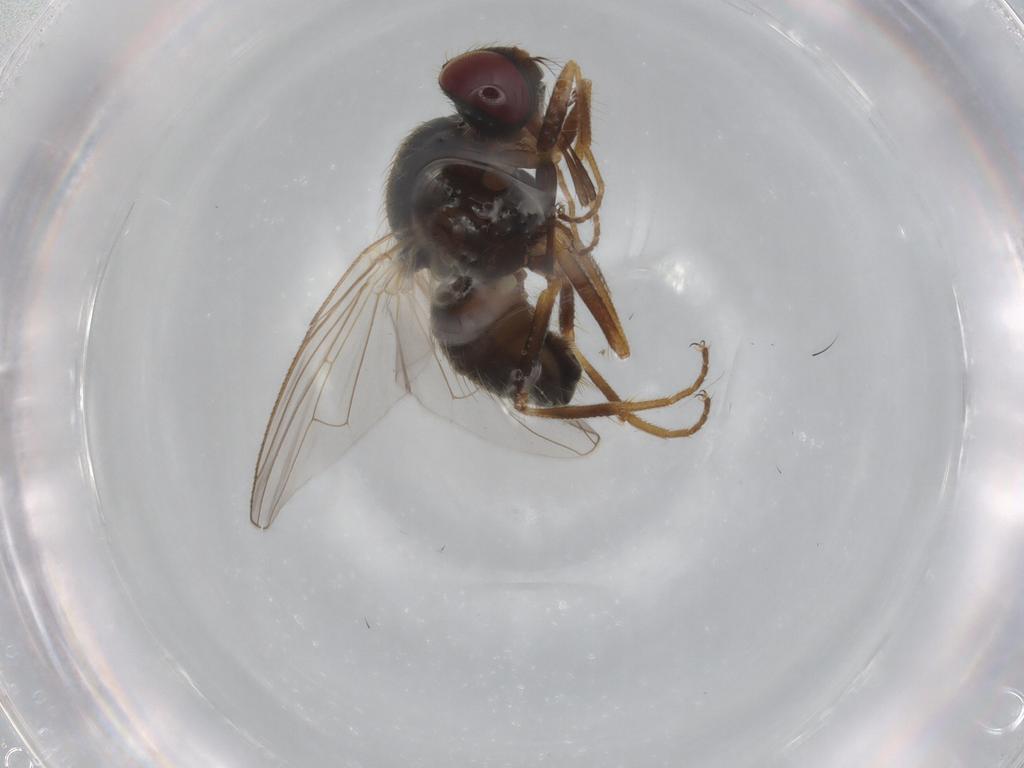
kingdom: Animalia
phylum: Arthropoda
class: Insecta
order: Diptera
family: Muscidae
